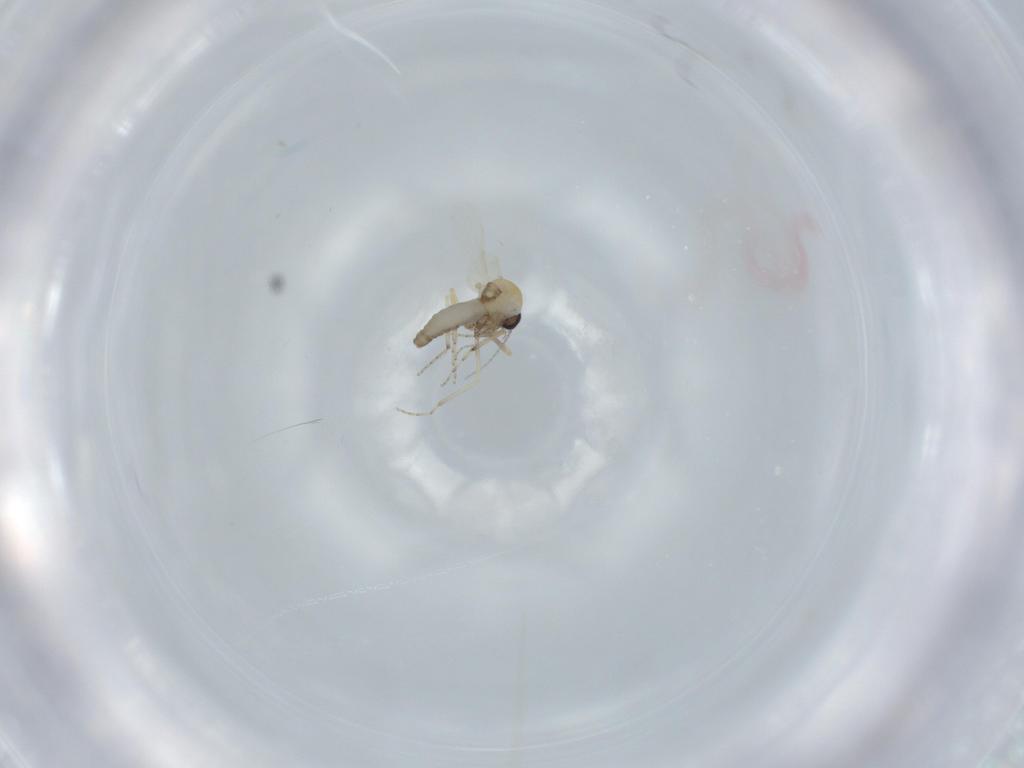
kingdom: Animalia
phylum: Arthropoda
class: Insecta
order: Diptera
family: Ceratopogonidae
